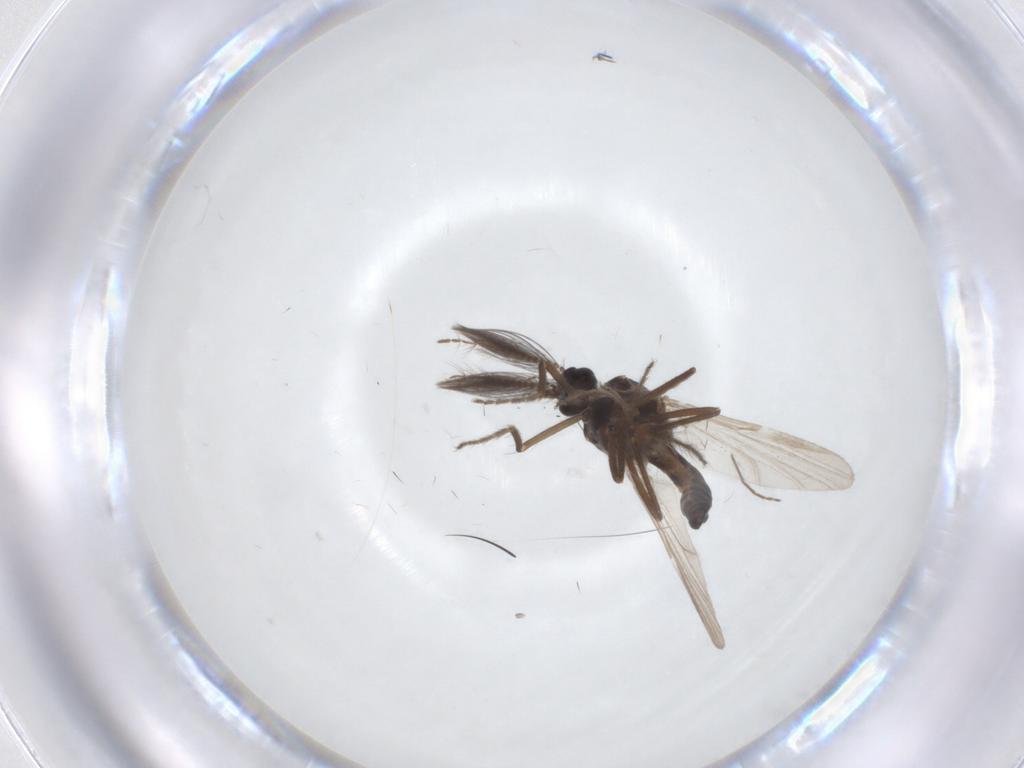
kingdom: Animalia
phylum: Arthropoda
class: Insecta
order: Diptera
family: Ceratopogonidae
